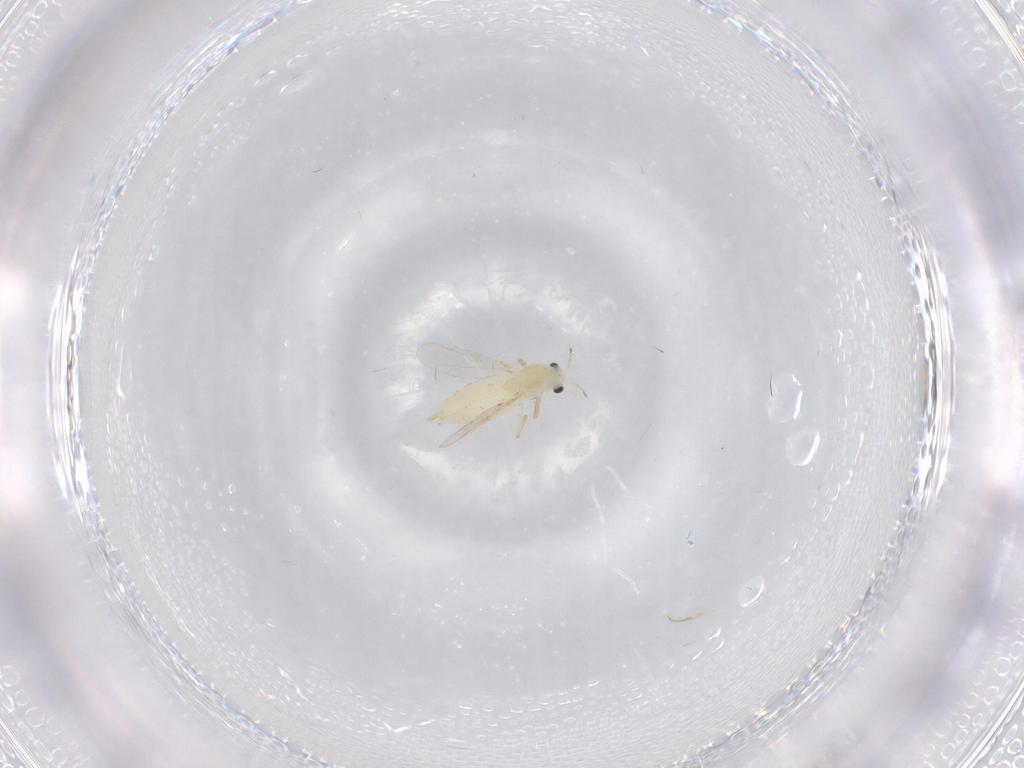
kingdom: Animalia
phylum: Arthropoda
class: Insecta
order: Diptera
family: Chironomidae
